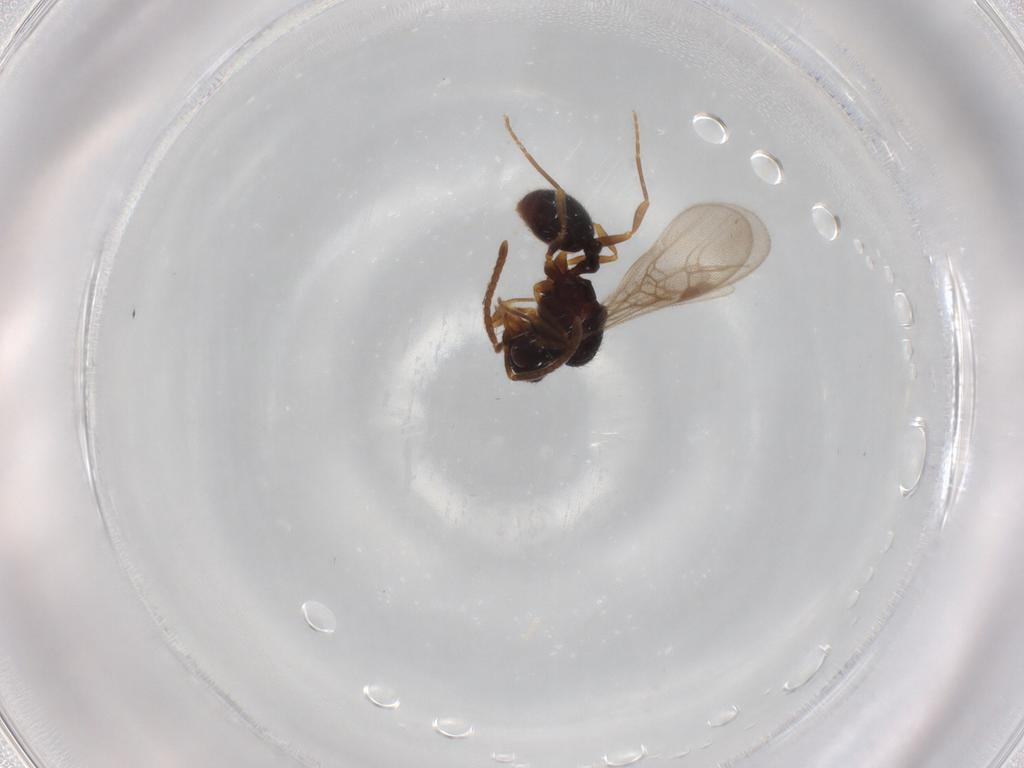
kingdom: Animalia
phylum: Arthropoda
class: Insecta
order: Hymenoptera
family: Formicidae
